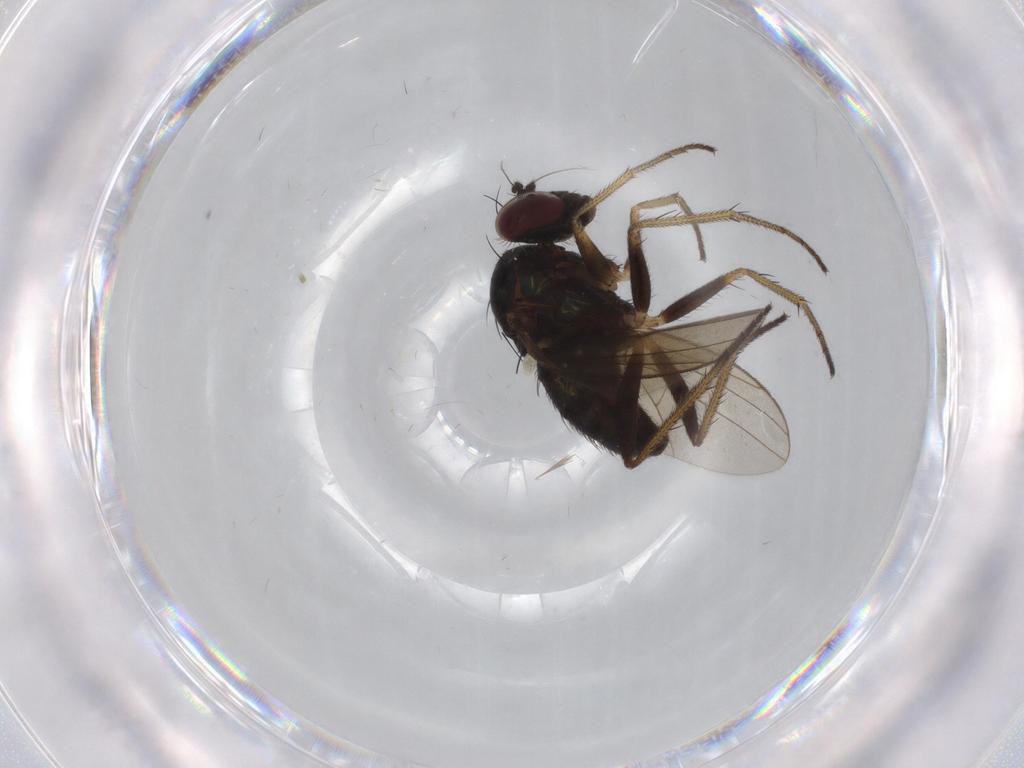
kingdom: Animalia
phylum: Arthropoda
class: Insecta
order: Diptera
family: Dolichopodidae
